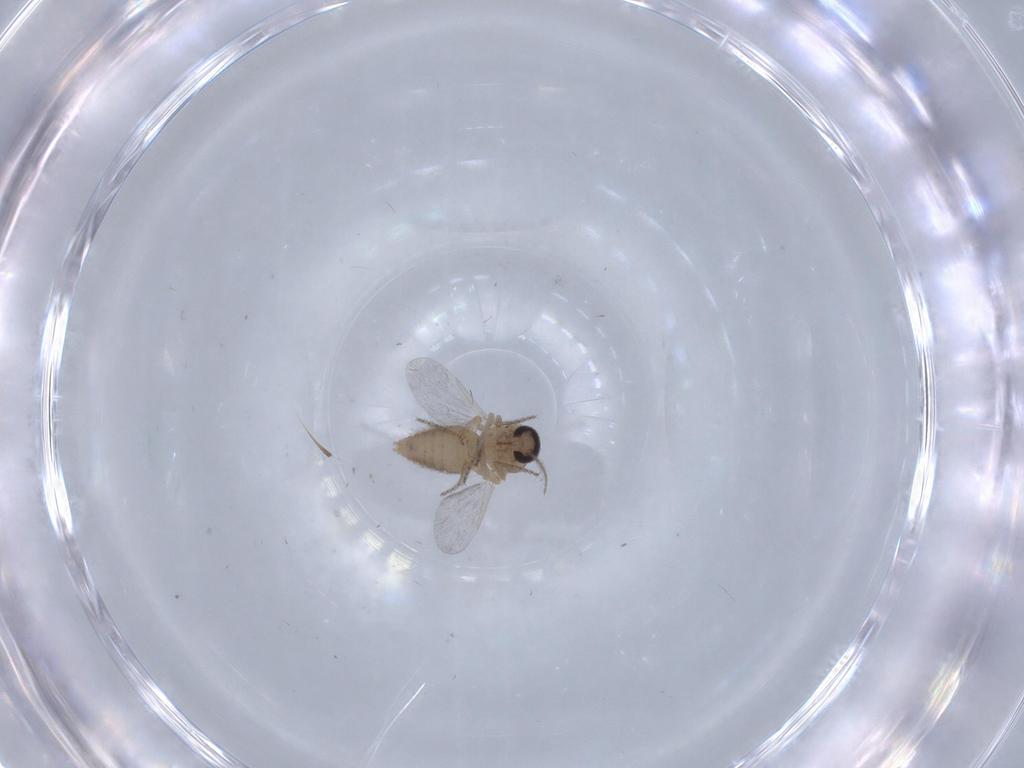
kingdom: Animalia
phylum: Arthropoda
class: Insecta
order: Diptera
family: Ceratopogonidae
